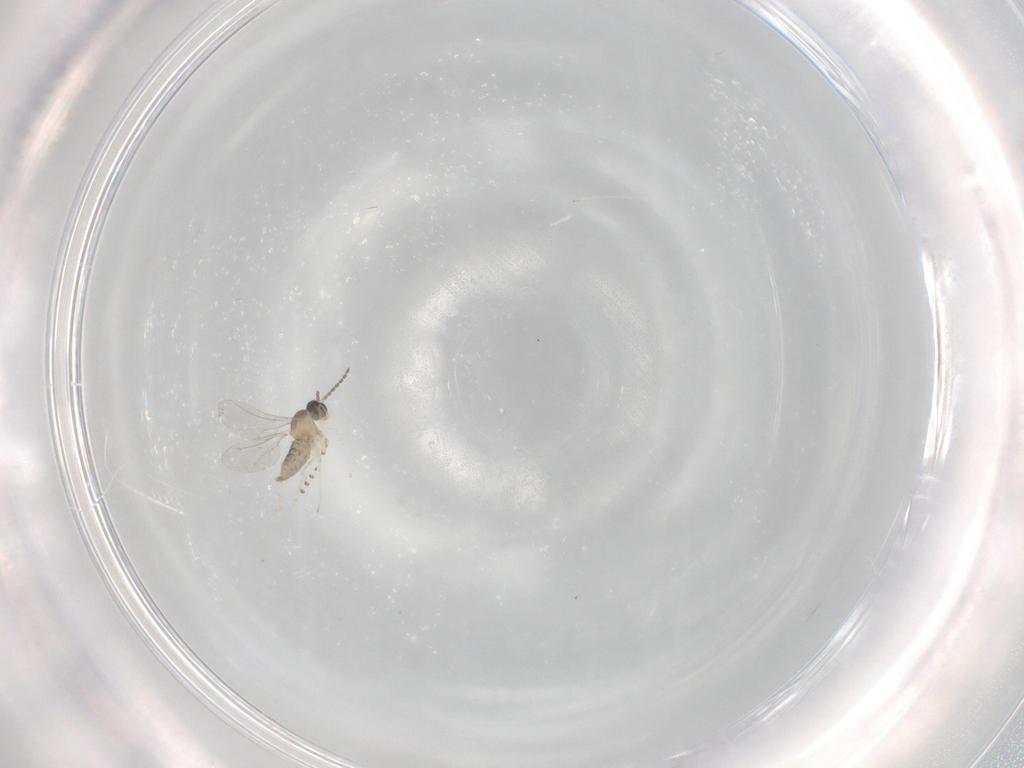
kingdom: Animalia
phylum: Arthropoda
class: Insecta
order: Diptera
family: Cecidomyiidae
